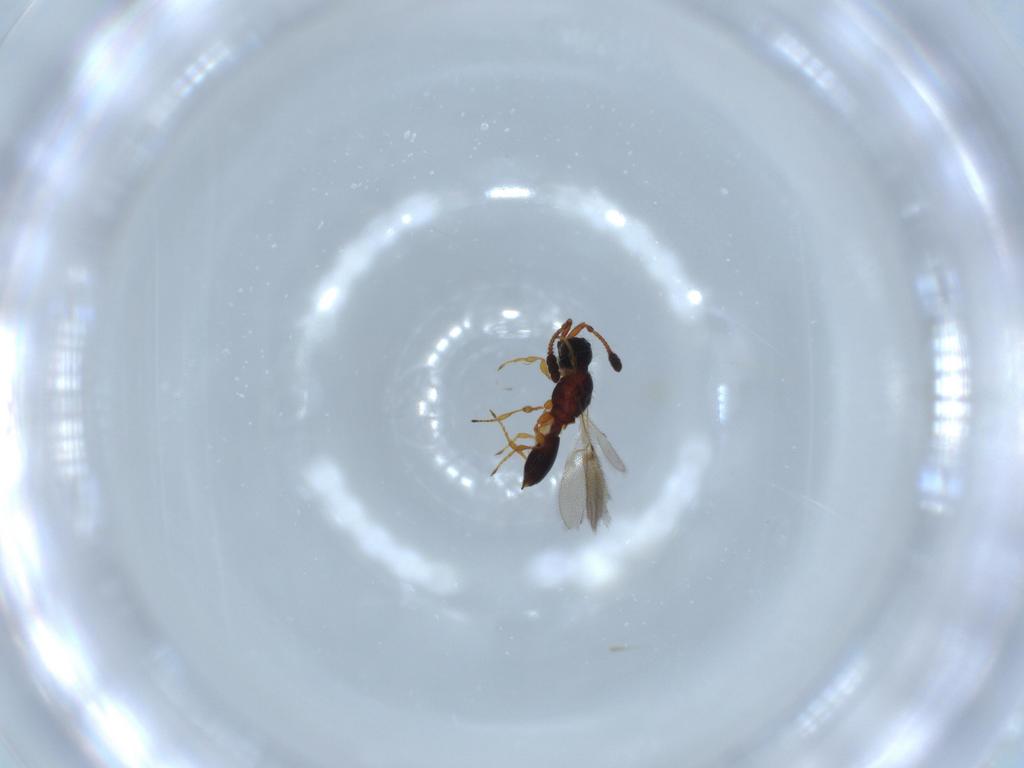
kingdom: Animalia
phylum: Arthropoda
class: Insecta
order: Hymenoptera
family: Diapriidae
